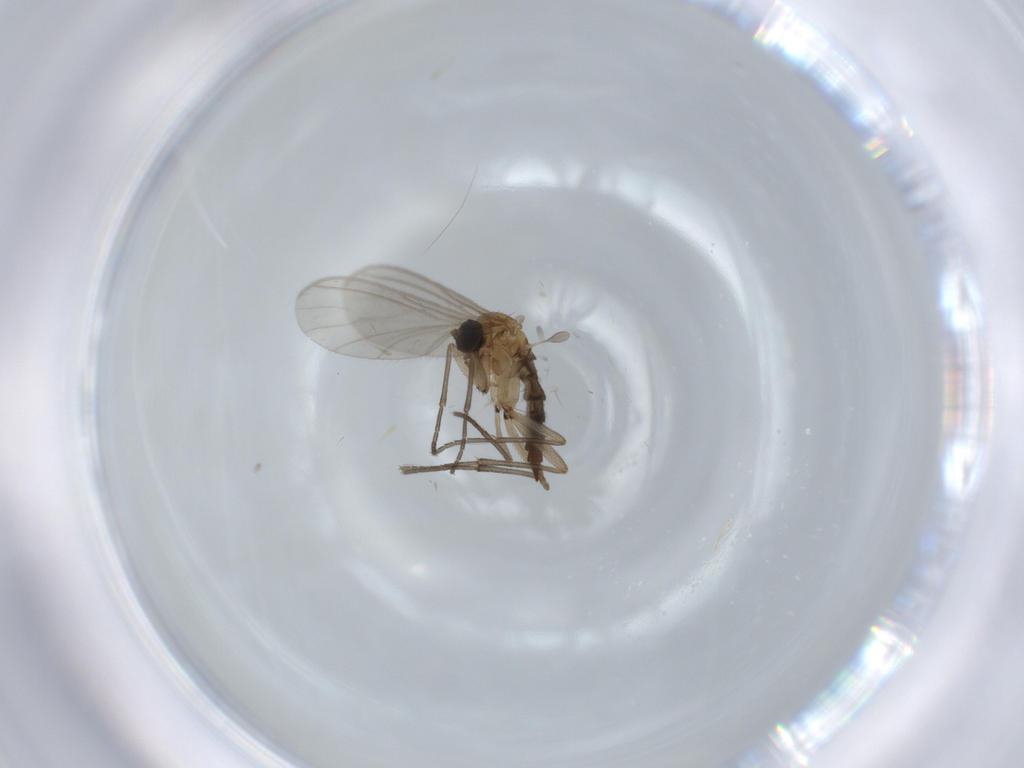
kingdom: Animalia
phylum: Arthropoda
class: Insecta
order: Diptera
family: Sciaridae
